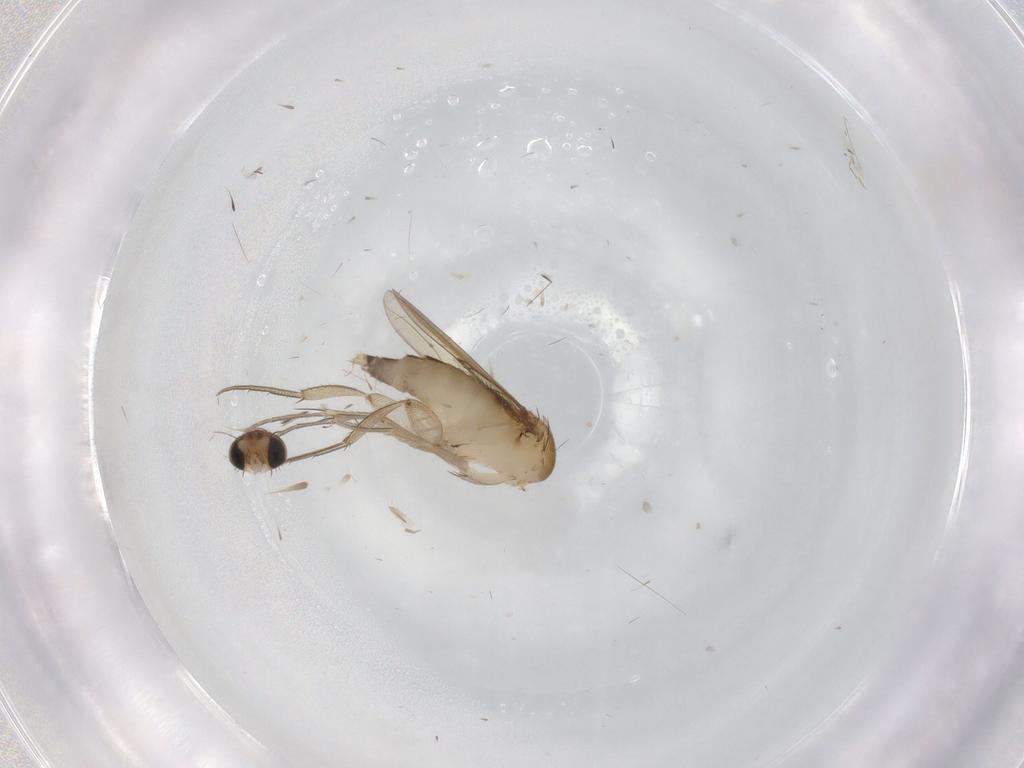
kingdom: Animalia
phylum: Arthropoda
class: Insecta
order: Diptera
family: Phoridae
